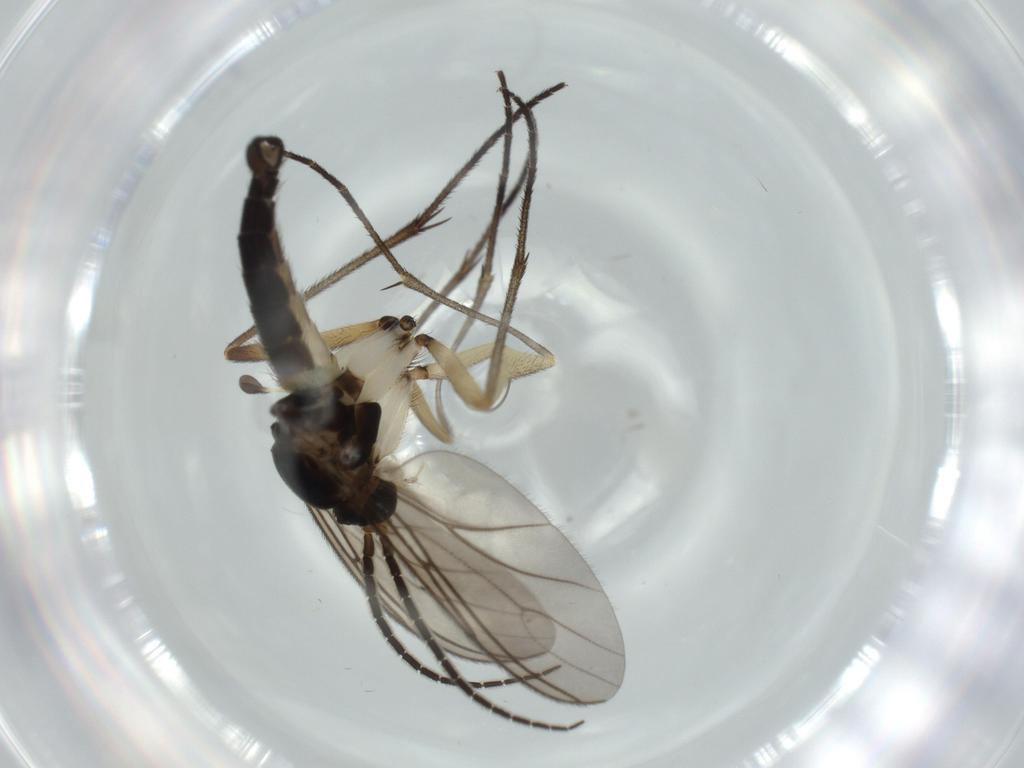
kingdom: Animalia
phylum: Arthropoda
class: Insecta
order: Diptera
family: Sciaridae
